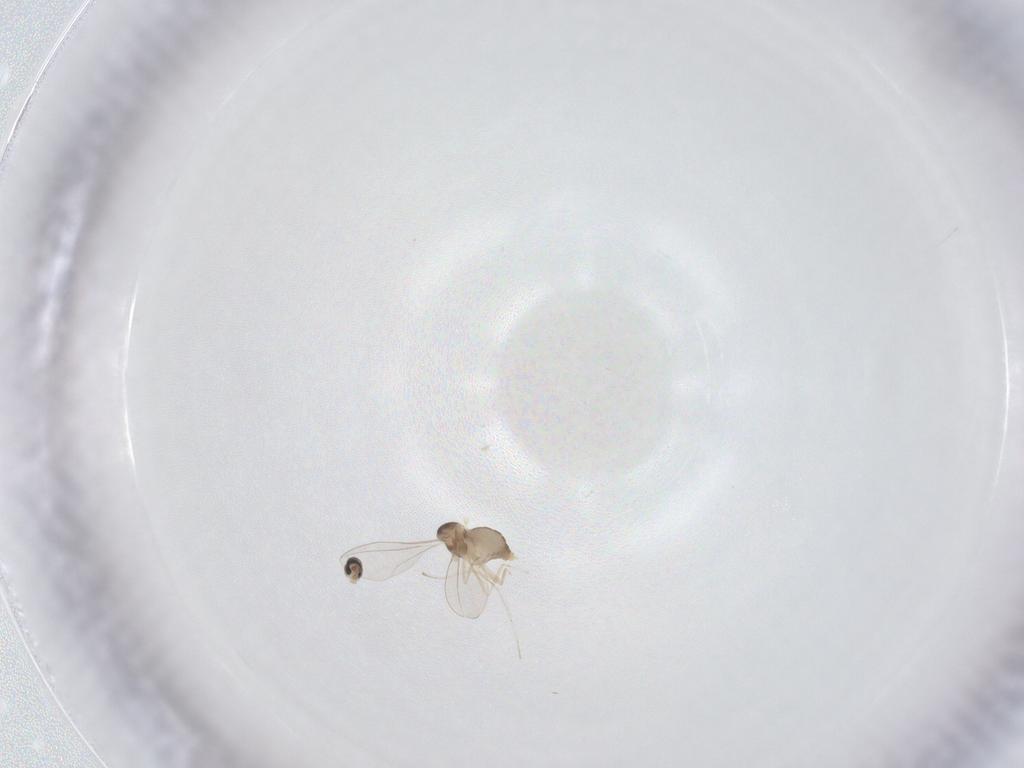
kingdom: Animalia
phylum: Arthropoda
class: Insecta
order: Diptera
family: Cecidomyiidae
